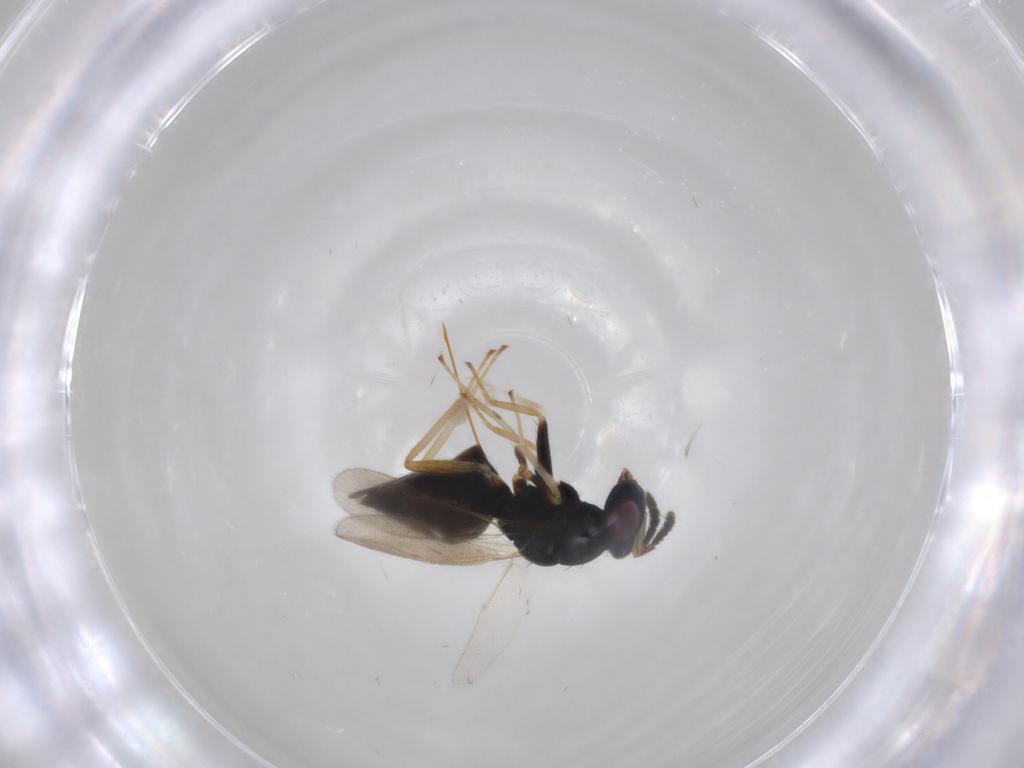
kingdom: Animalia
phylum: Arthropoda
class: Insecta
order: Hymenoptera
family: Eulophidae
